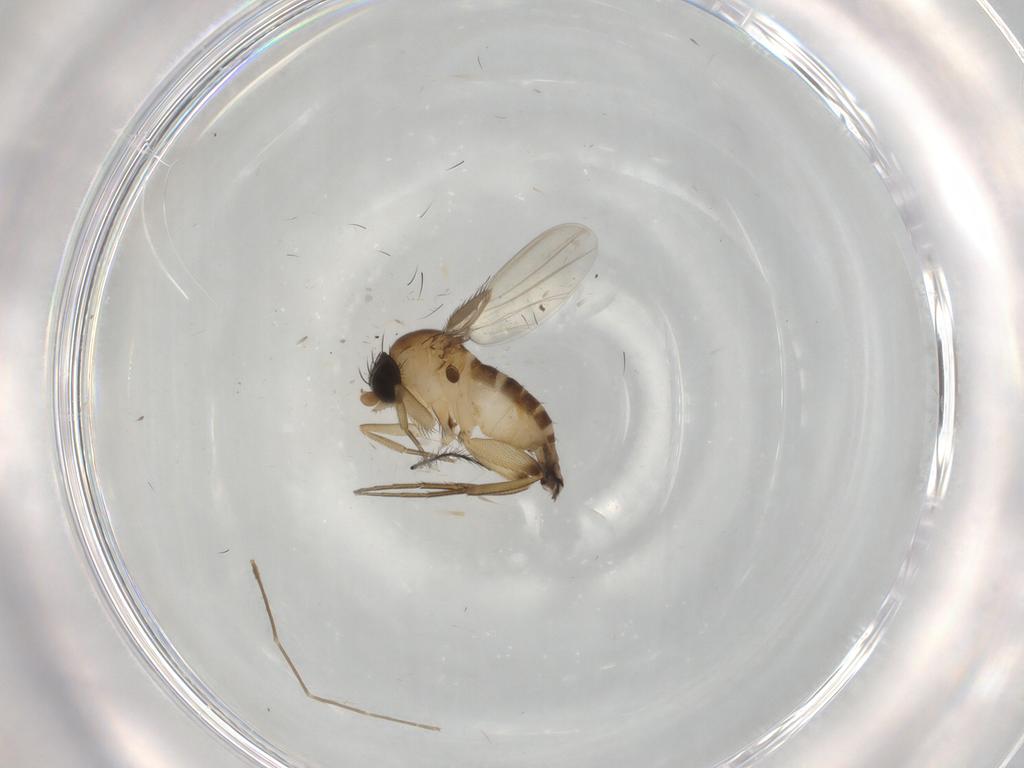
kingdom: Animalia
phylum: Arthropoda
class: Insecta
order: Diptera
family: Phoridae
